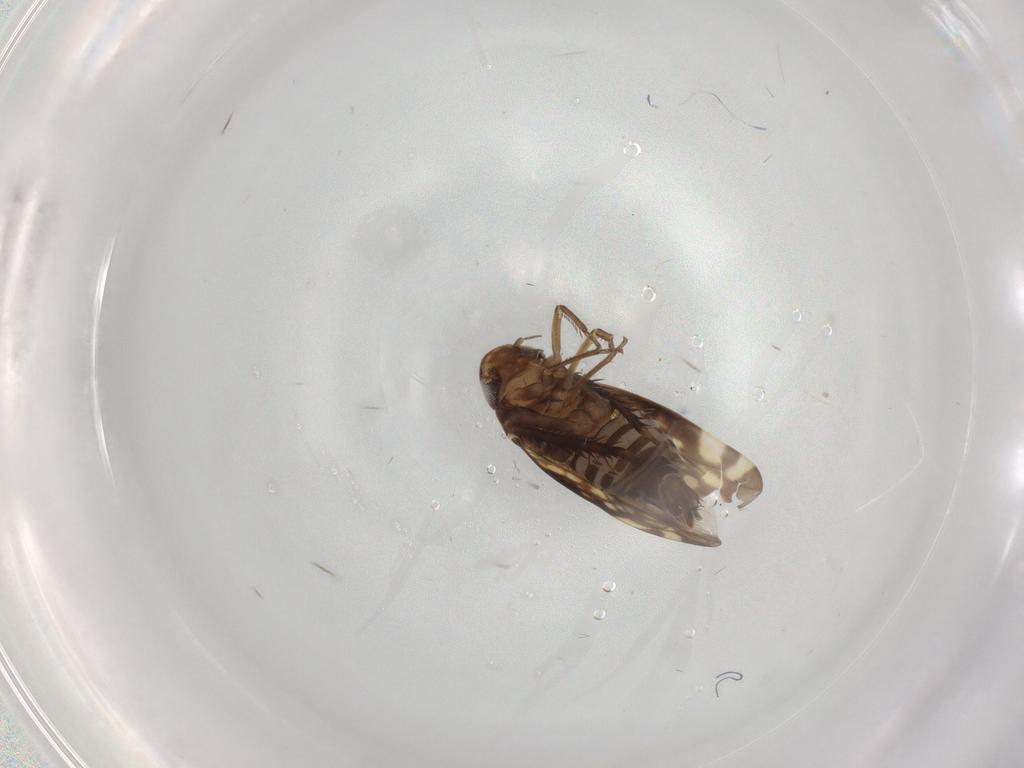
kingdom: Animalia
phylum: Arthropoda
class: Insecta
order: Hemiptera
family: Cicadellidae
